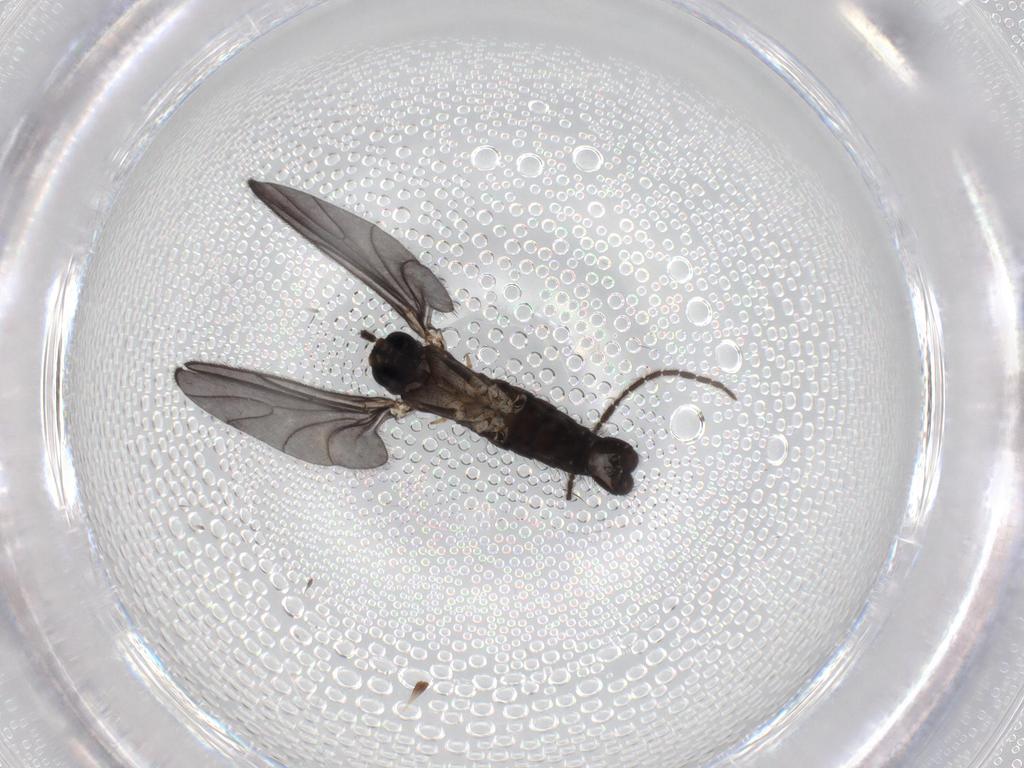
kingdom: Animalia
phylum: Arthropoda
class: Insecta
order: Diptera
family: Sciaridae
